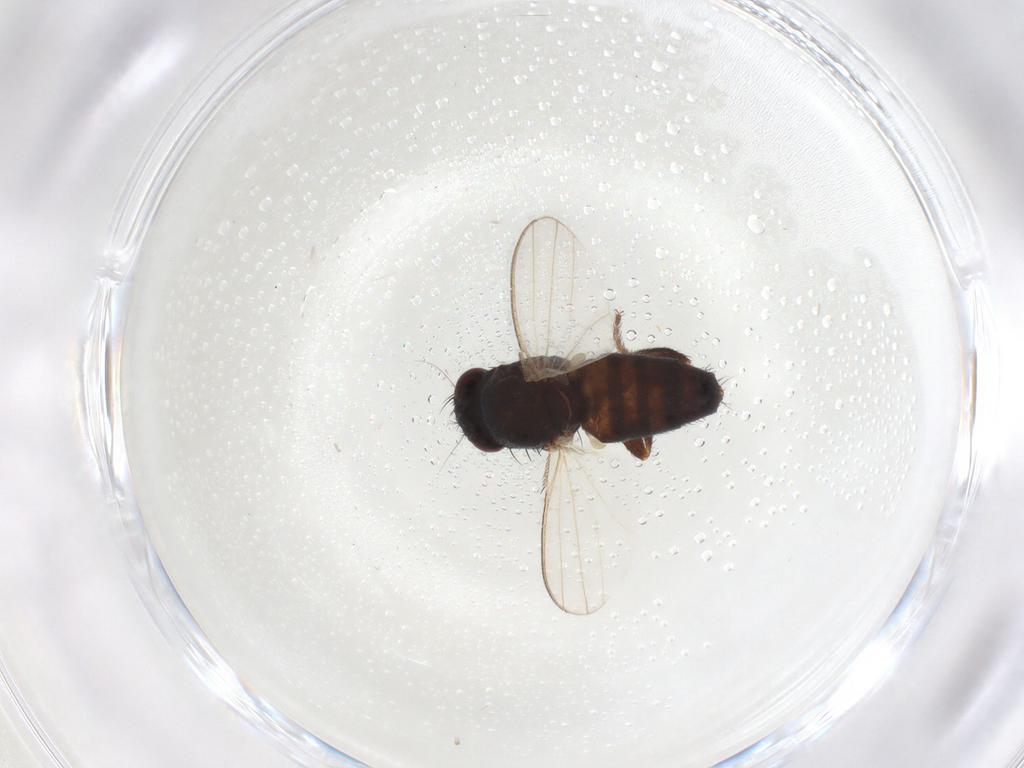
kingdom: Animalia
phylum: Arthropoda
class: Insecta
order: Diptera
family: Milichiidae
